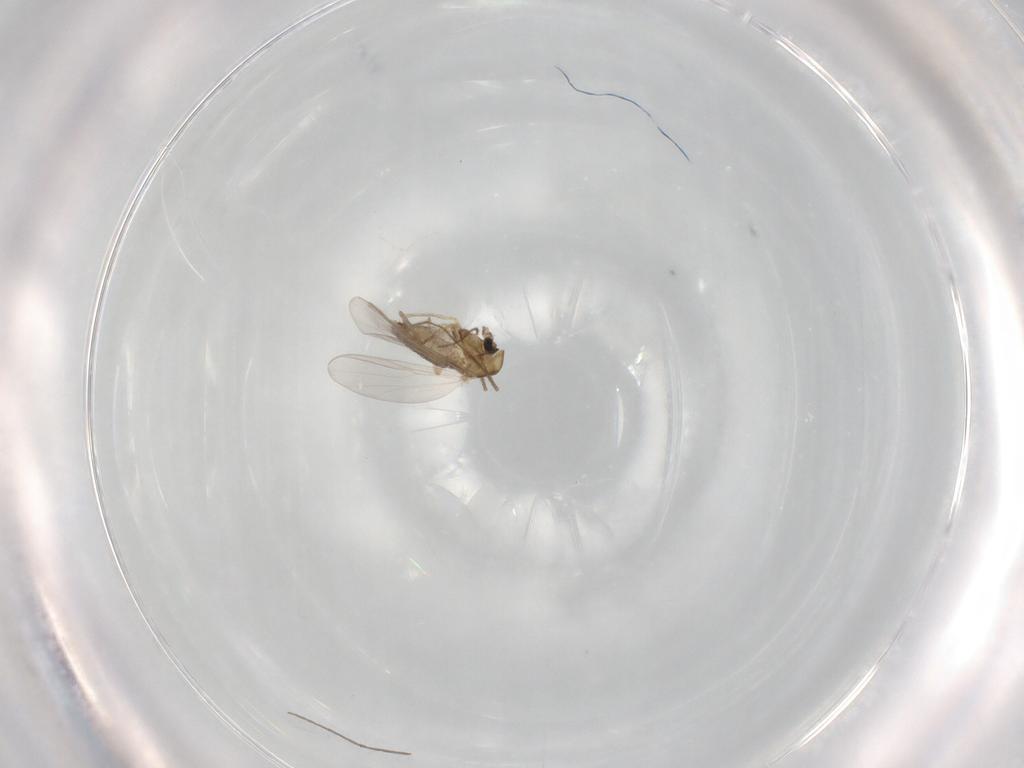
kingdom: Animalia
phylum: Arthropoda
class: Insecta
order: Diptera
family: Chironomidae
